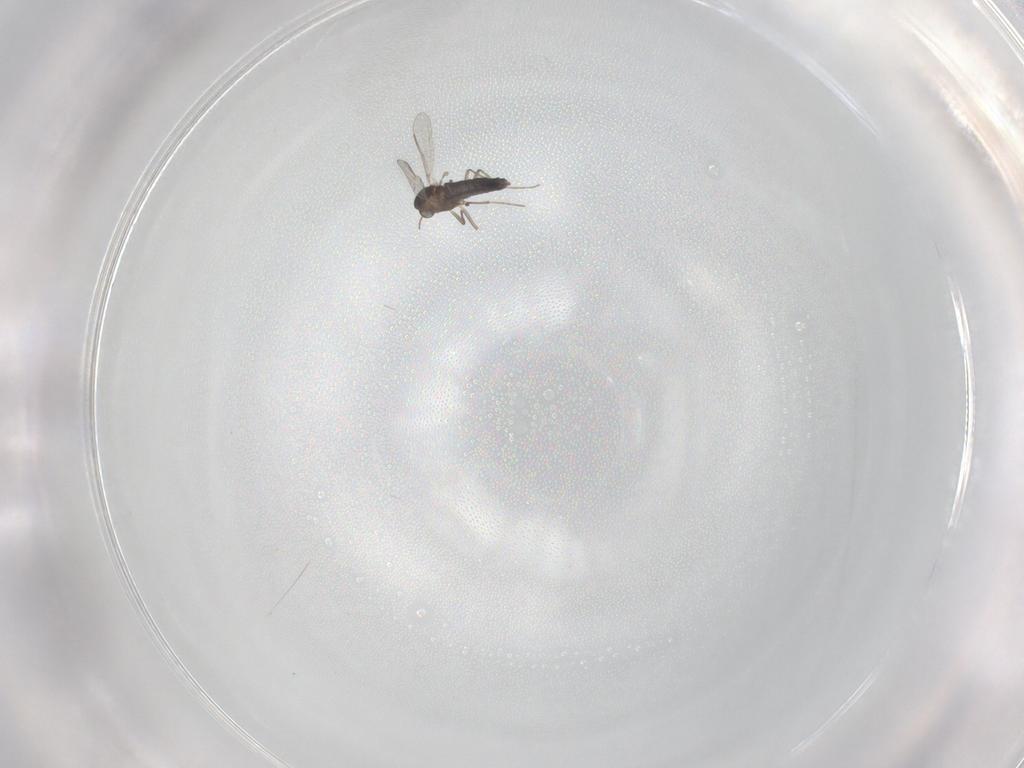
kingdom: Animalia
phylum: Arthropoda
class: Insecta
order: Diptera
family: Chironomidae
